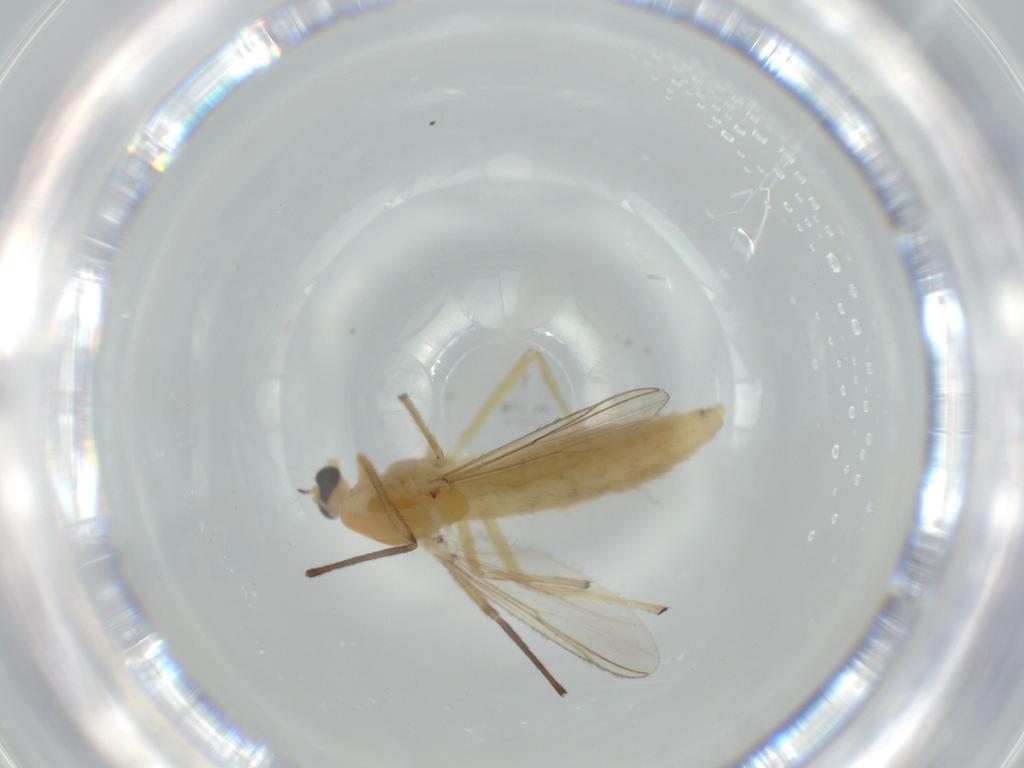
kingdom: Animalia
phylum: Arthropoda
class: Insecta
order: Diptera
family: Chironomidae
